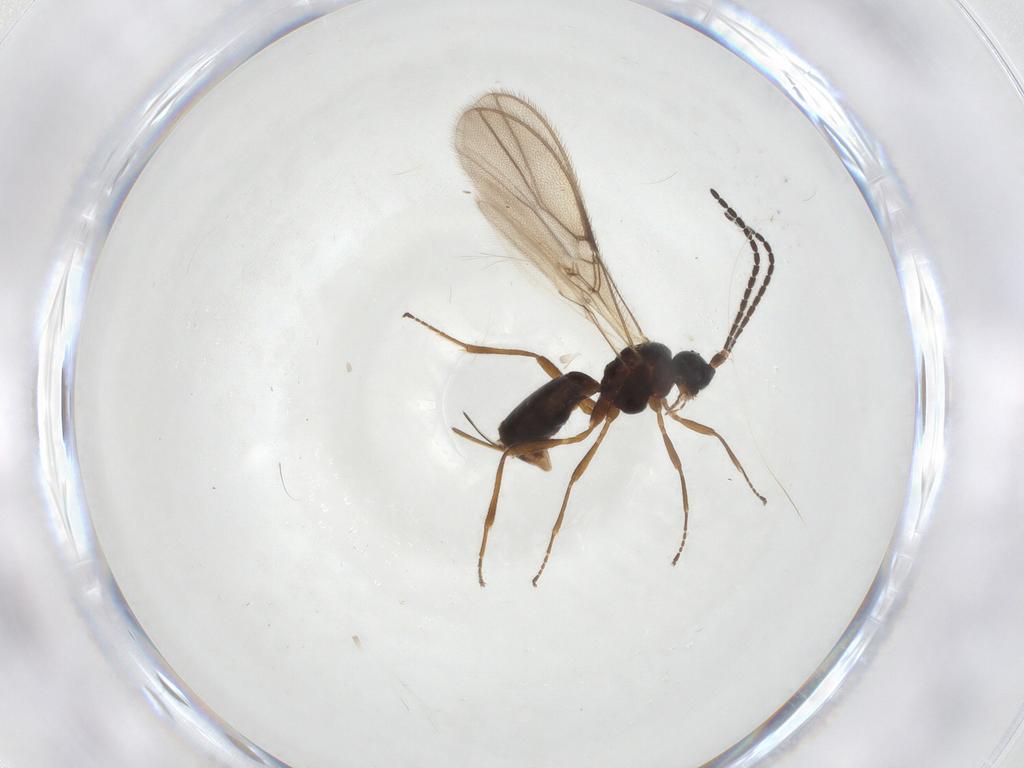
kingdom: Animalia
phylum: Arthropoda
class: Insecta
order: Hymenoptera
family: Braconidae
